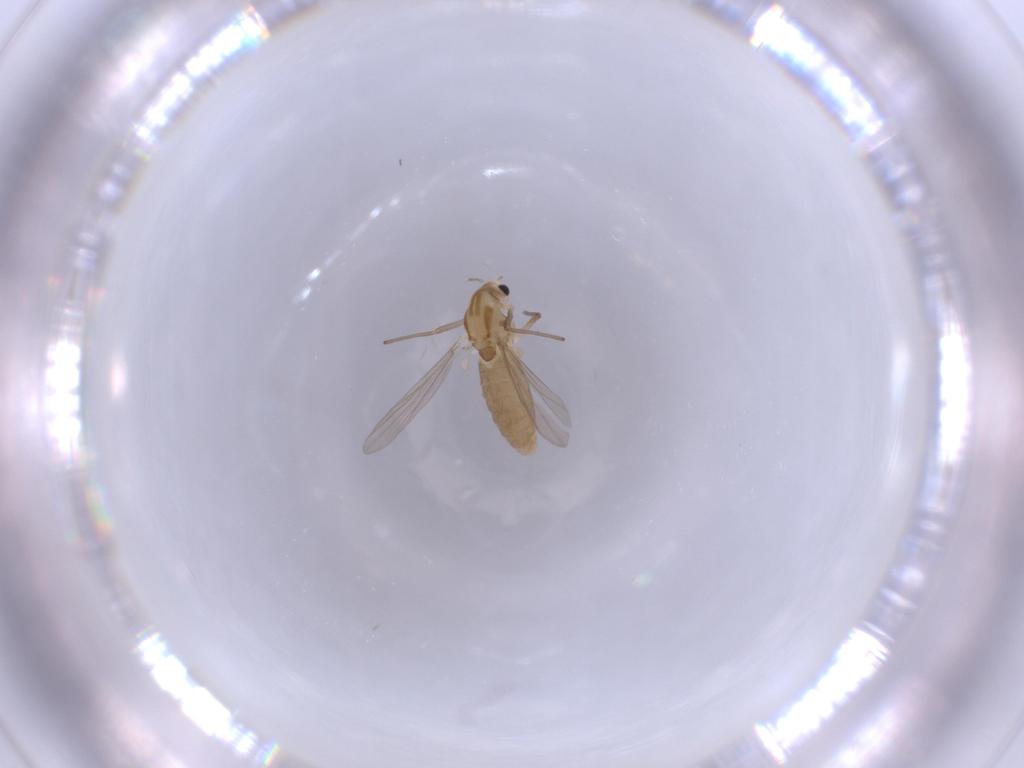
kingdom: Animalia
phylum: Arthropoda
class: Insecta
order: Diptera
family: Chironomidae
